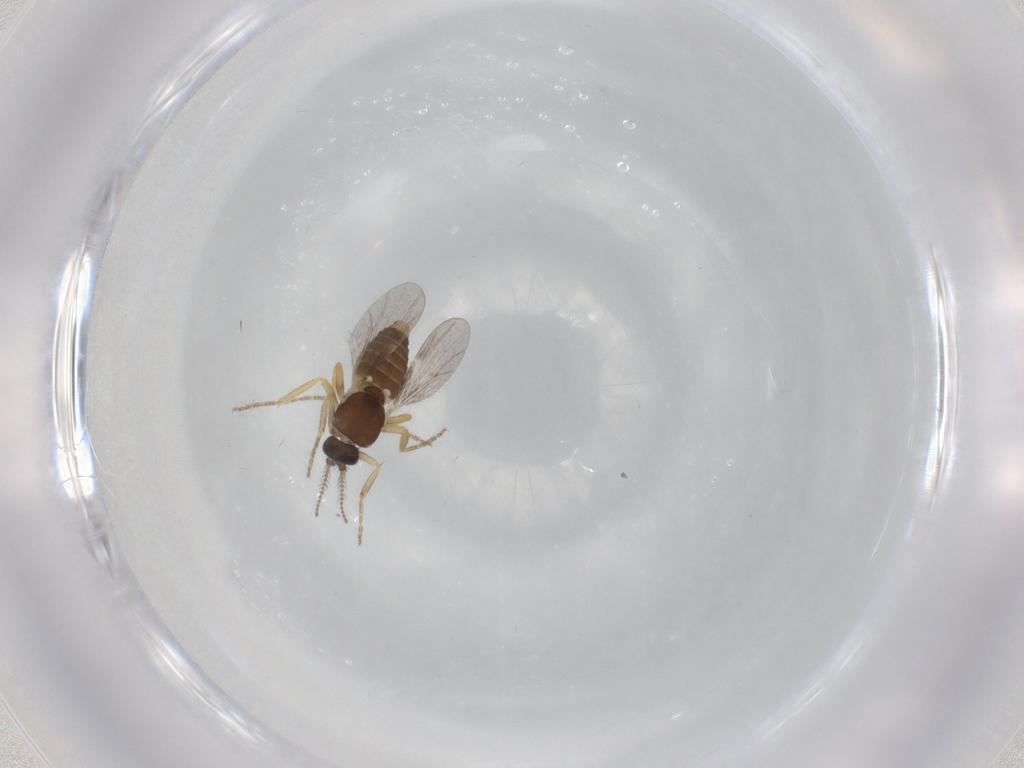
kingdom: Animalia
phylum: Arthropoda
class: Insecta
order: Diptera
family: Ceratopogonidae
